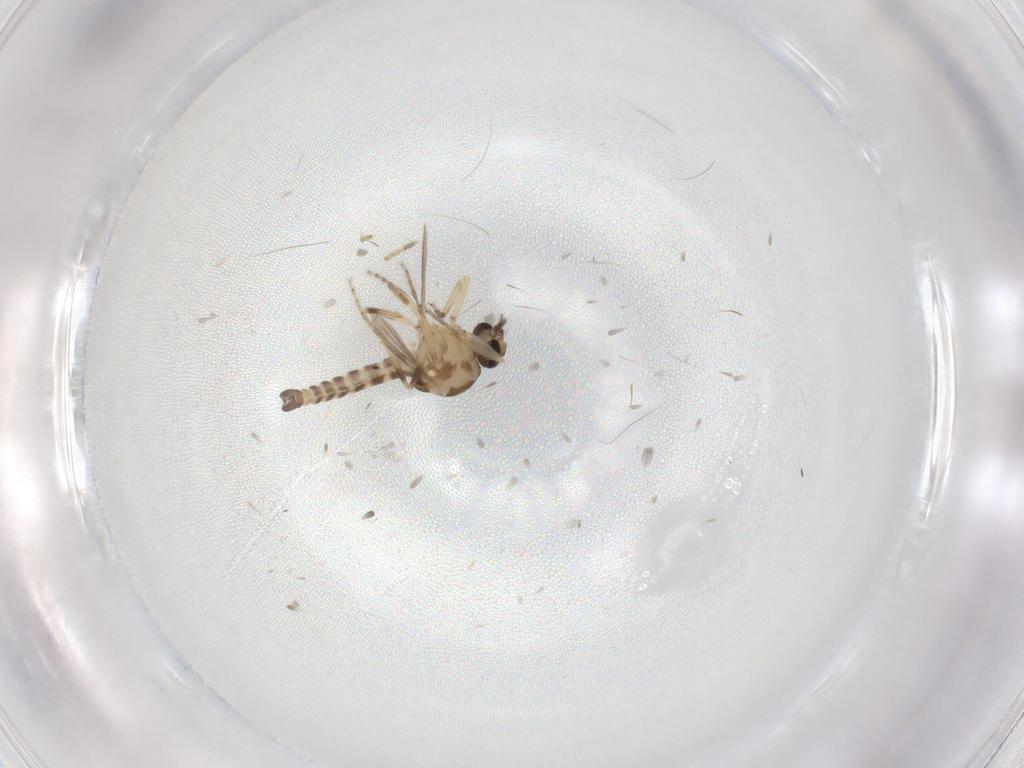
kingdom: Animalia
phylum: Arthropoda
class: Insecta
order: Diptera
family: Ceratopogonidae
